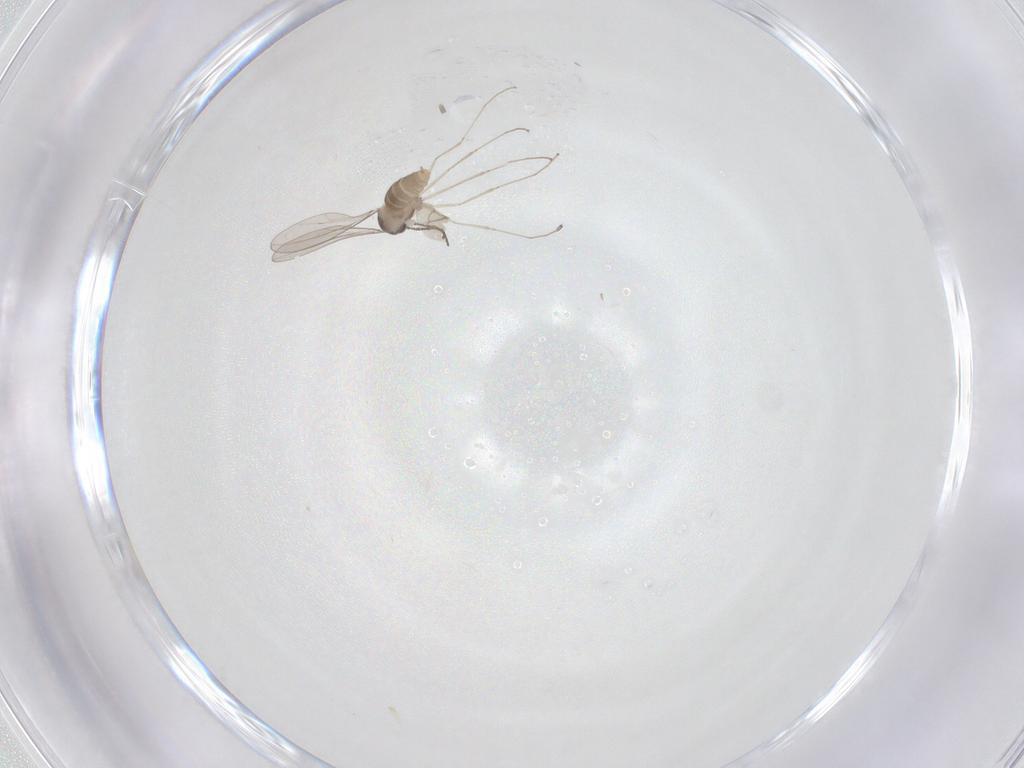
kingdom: Animalia
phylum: Arthropoda
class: Insecta
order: Diptera
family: Cecidomyiidae
